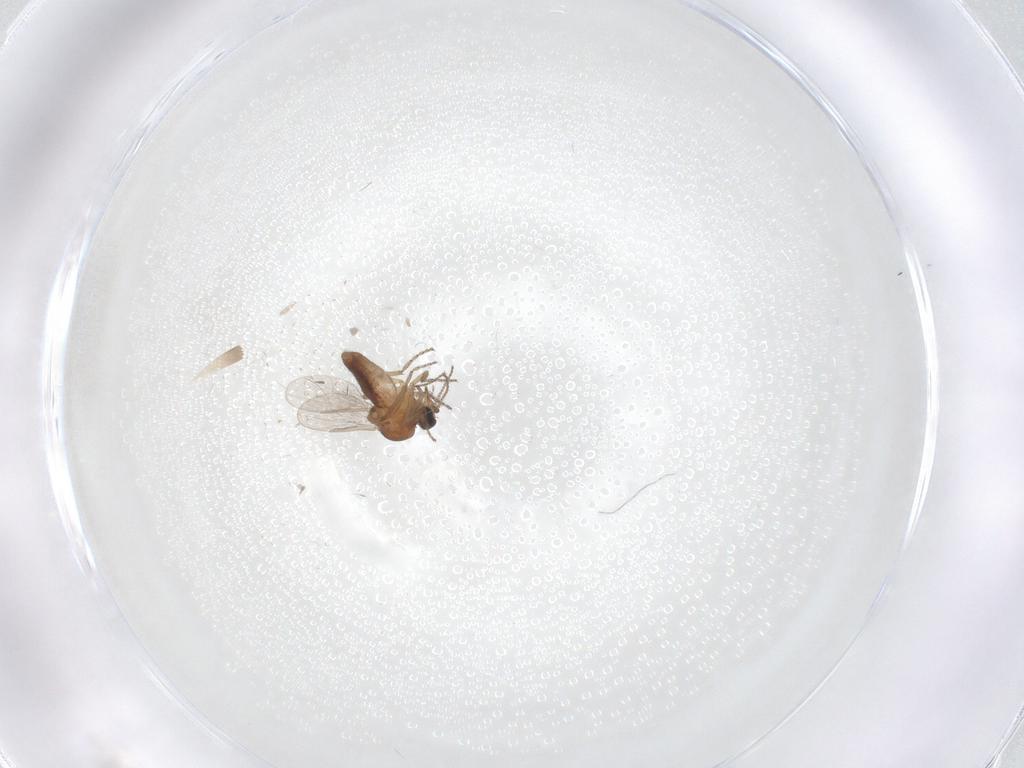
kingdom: Animalia
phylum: Arthropoda
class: Insecta
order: Diptera
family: Ceratopogonidae
